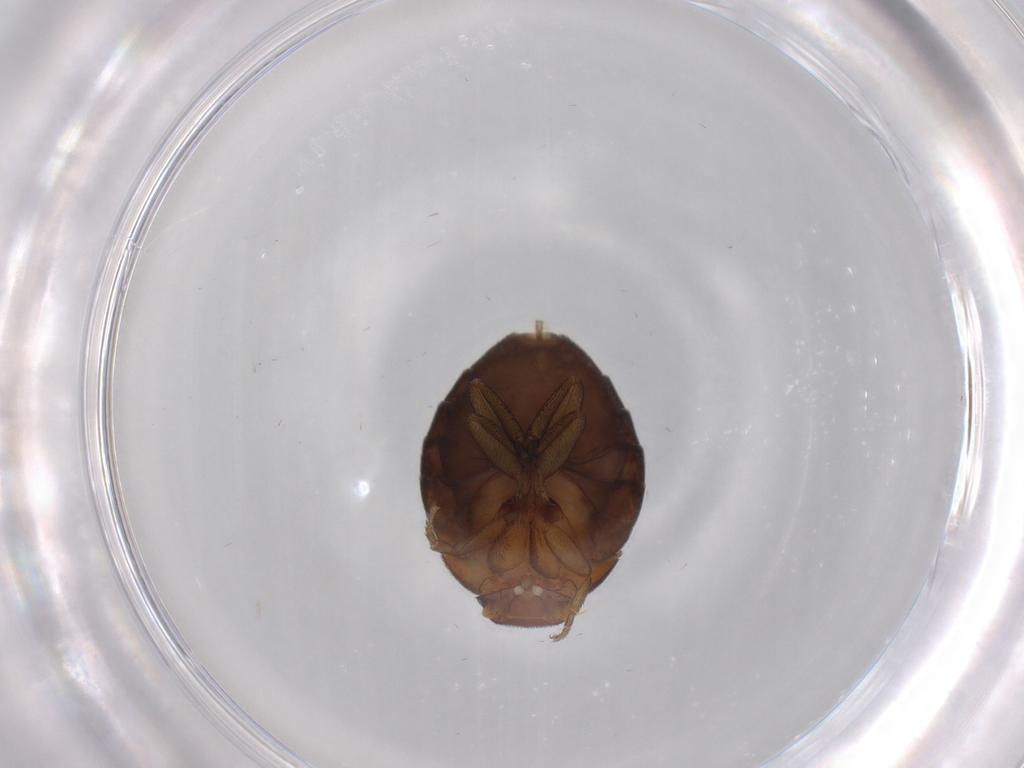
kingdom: Animalia
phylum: Arthropoda
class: Insecta
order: Diptera
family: Phoridae
